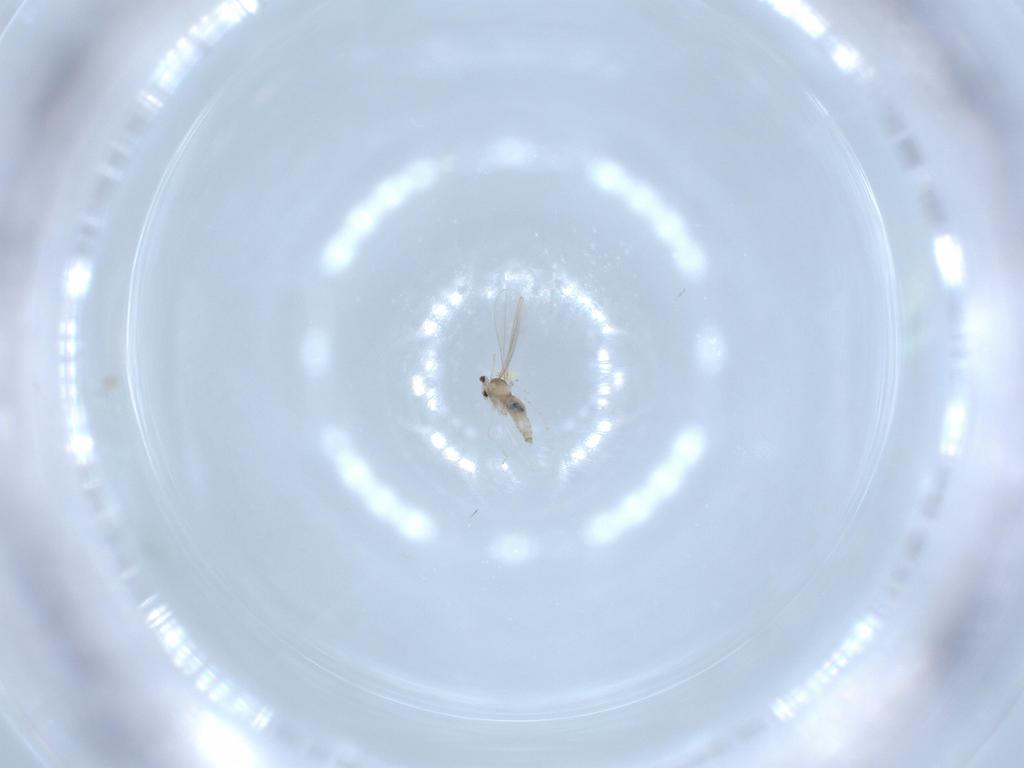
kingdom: Animalia
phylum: Arthropoda
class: Insecta
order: Diptera
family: Cecidomyiidae
